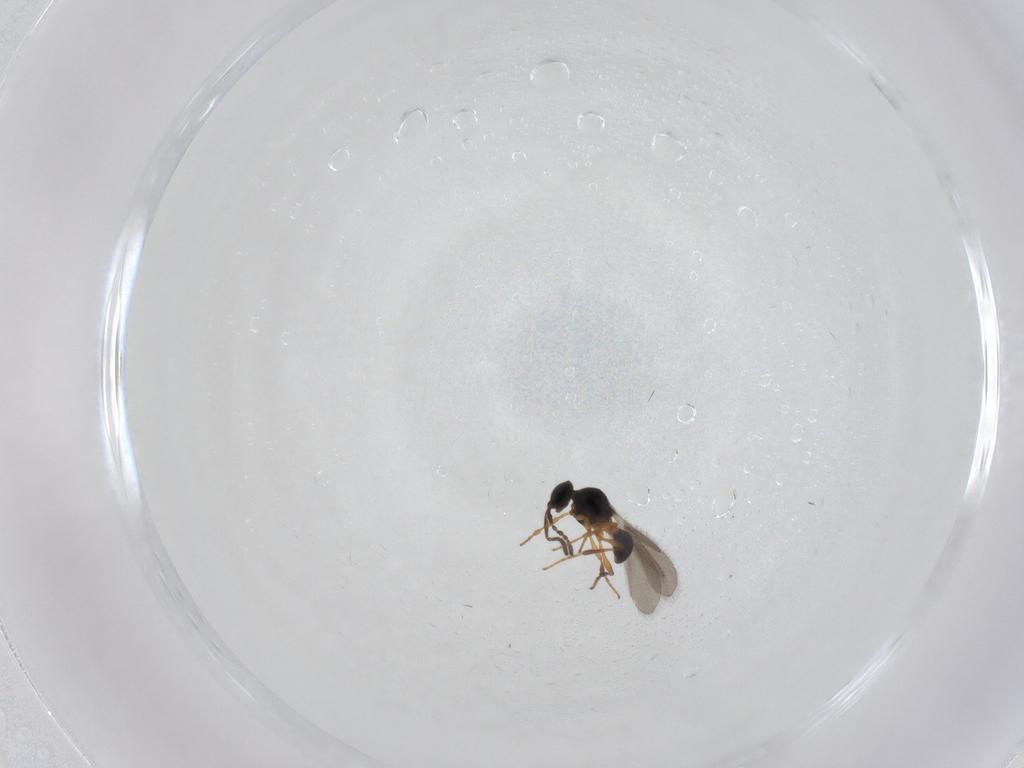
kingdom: Animalia
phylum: Arthropoda
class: Insecta
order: Hymenoptera
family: Platygastridae
